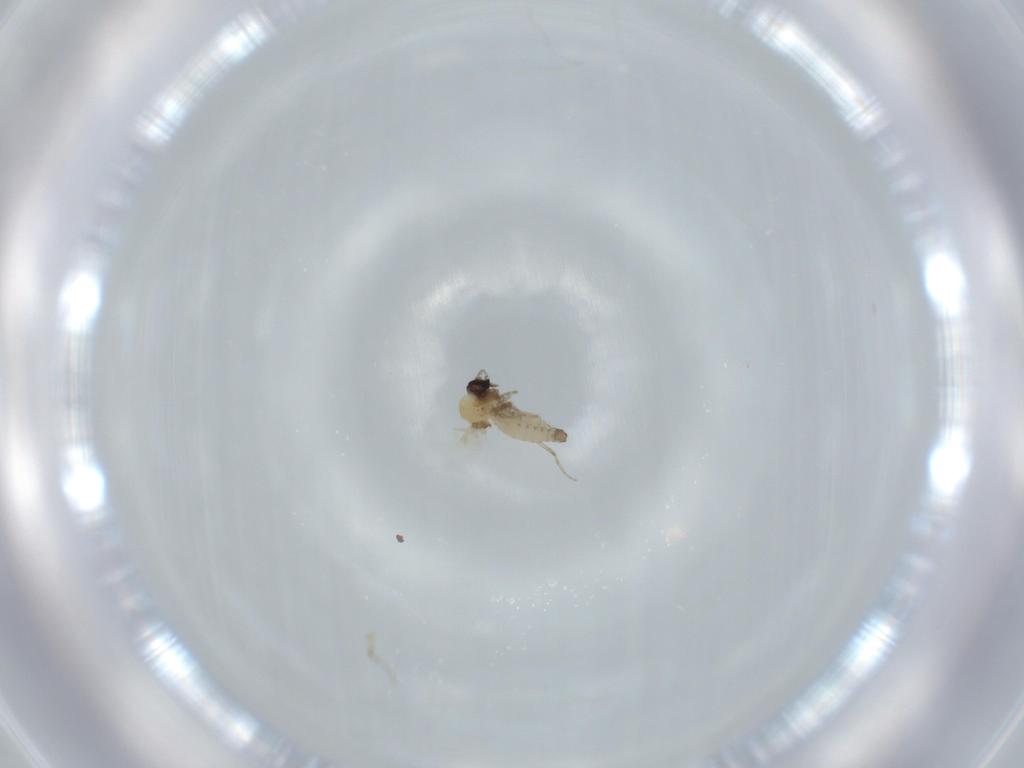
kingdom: Animalia
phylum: Arthropoda
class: Insecta
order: Diptera
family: Ceratopogonidae
